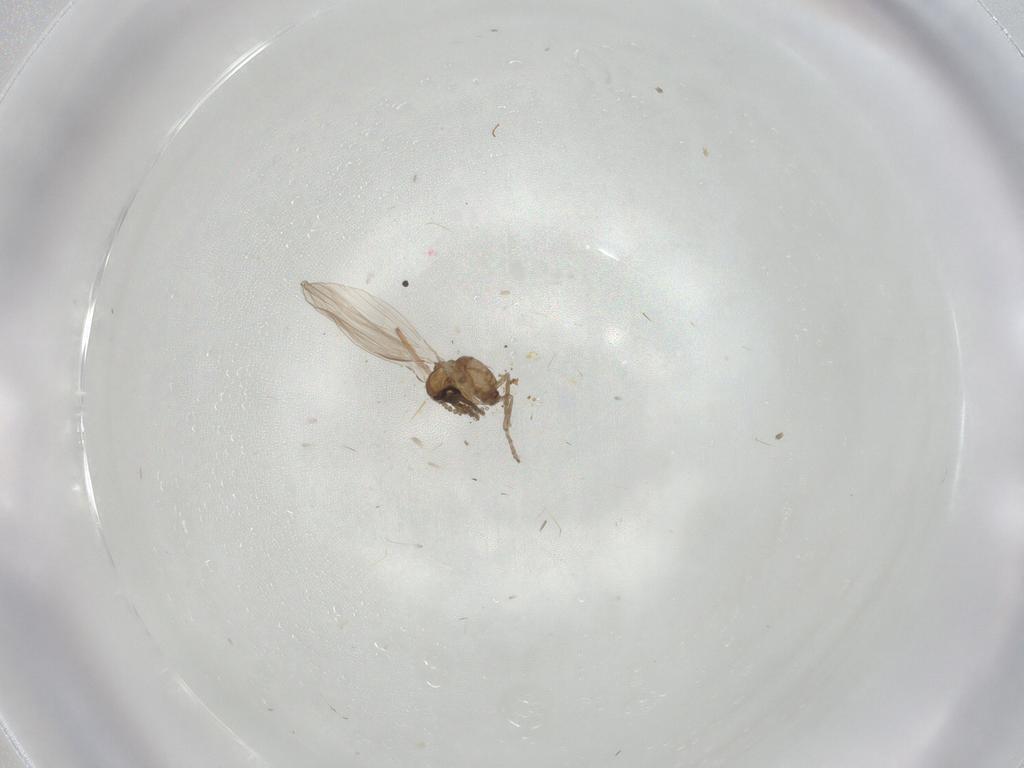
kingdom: Animalia
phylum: Arthropoda
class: Insecta
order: Diptera
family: Psychodidae
